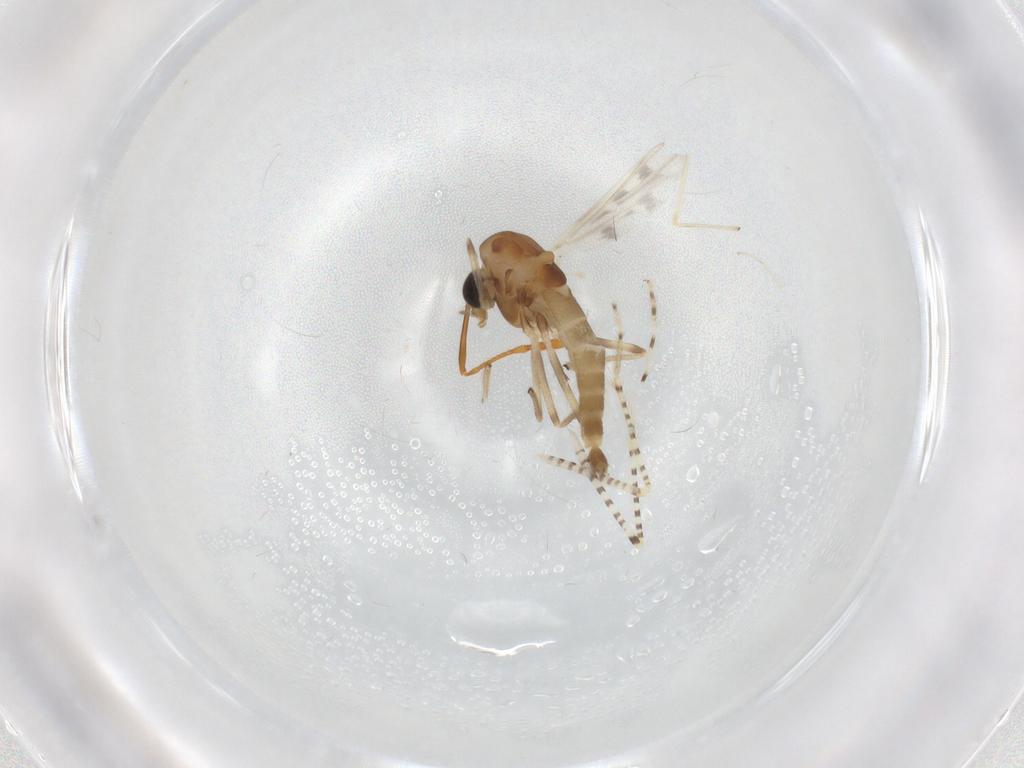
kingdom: Animalia
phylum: Arthropoda
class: Insecta
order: Diptera
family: Chironomidae
